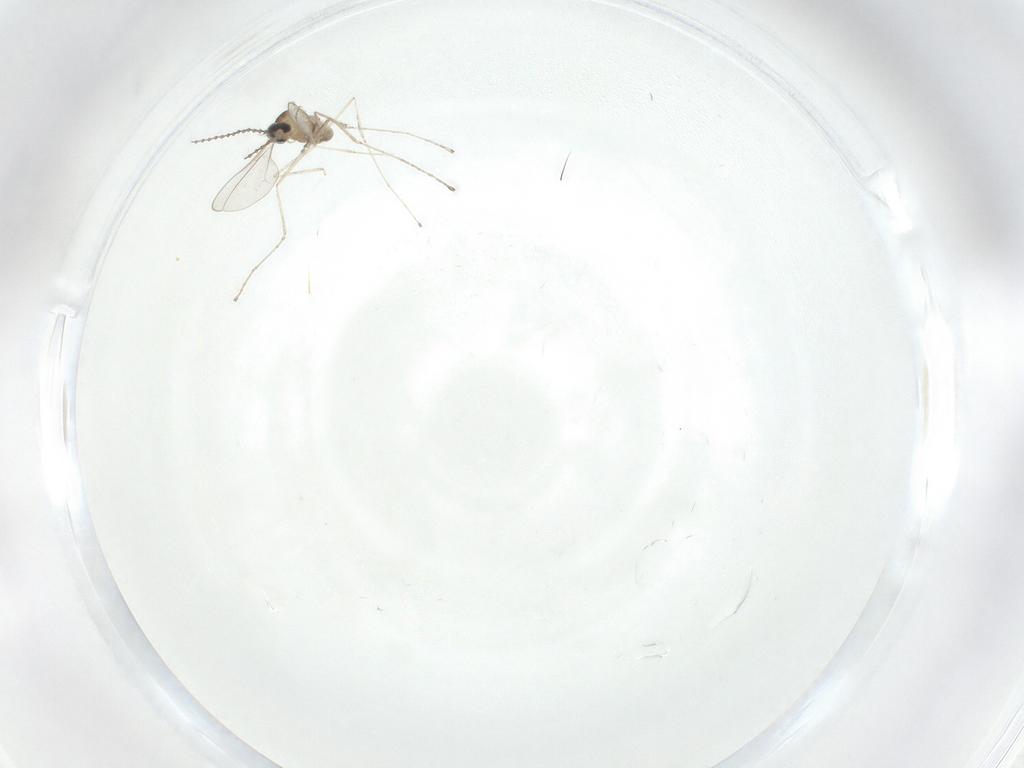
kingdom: Animalia
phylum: Arthropoda
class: Insecta
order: Diptera
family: Cecidomyiidae
